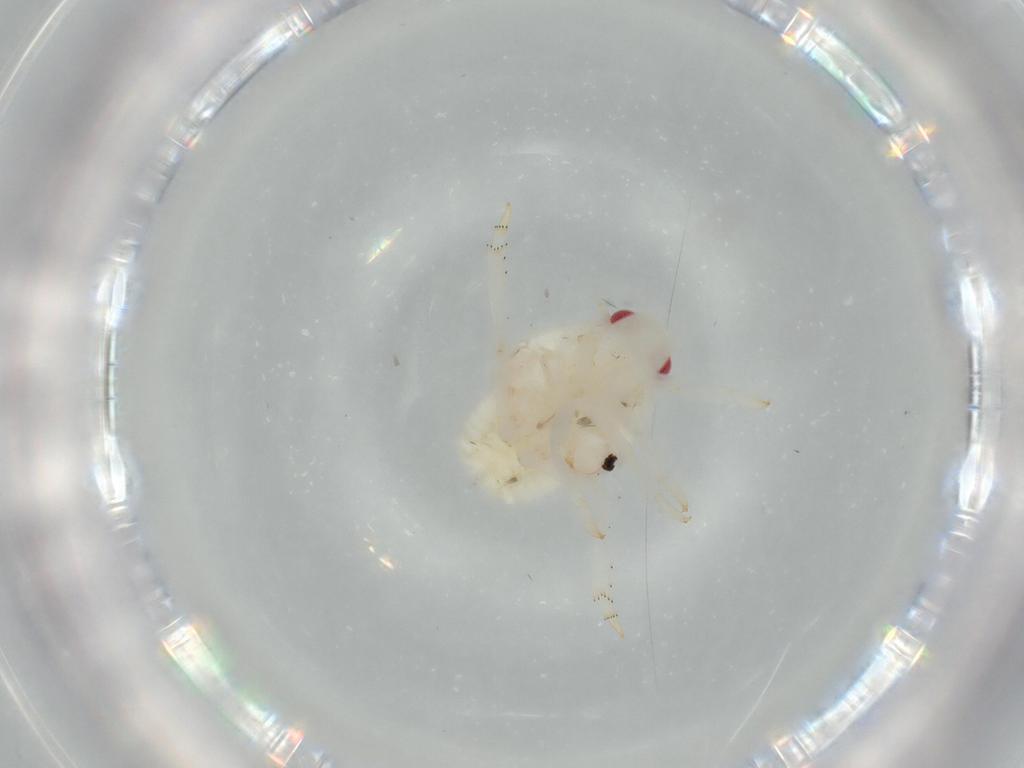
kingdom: Animalia
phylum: Arthropoda
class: Insecta
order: Hemiptera
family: Flatidae
